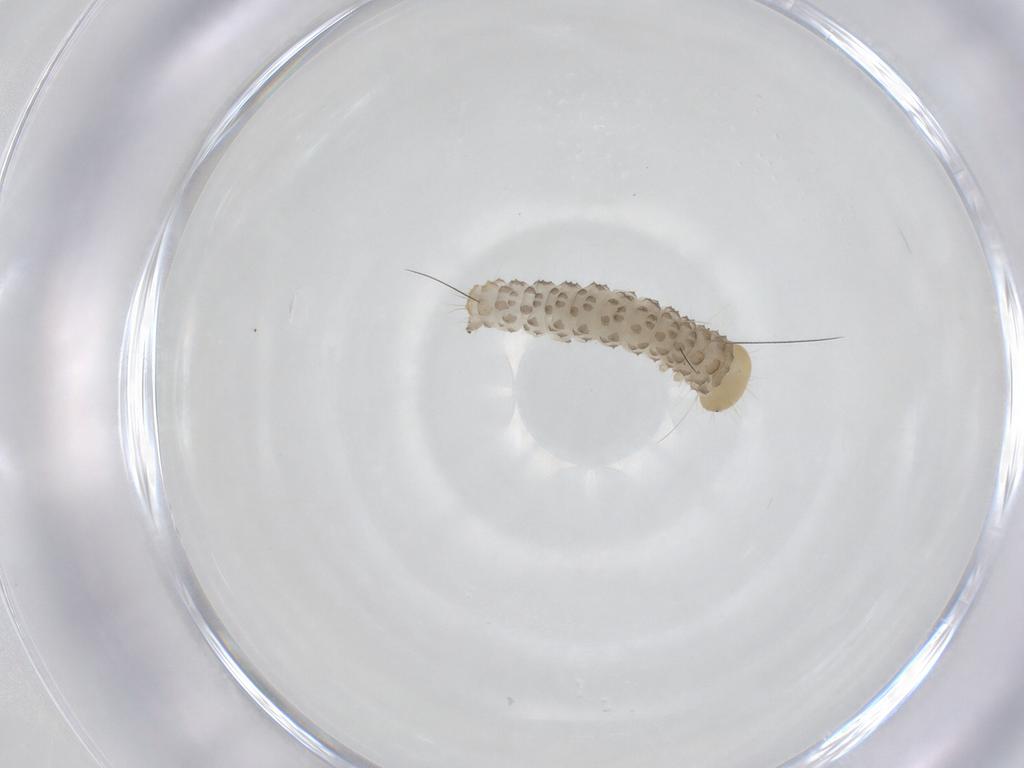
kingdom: Animalia
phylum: Arthropoda
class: Insecta
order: Lepidoptera
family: Erebidae
